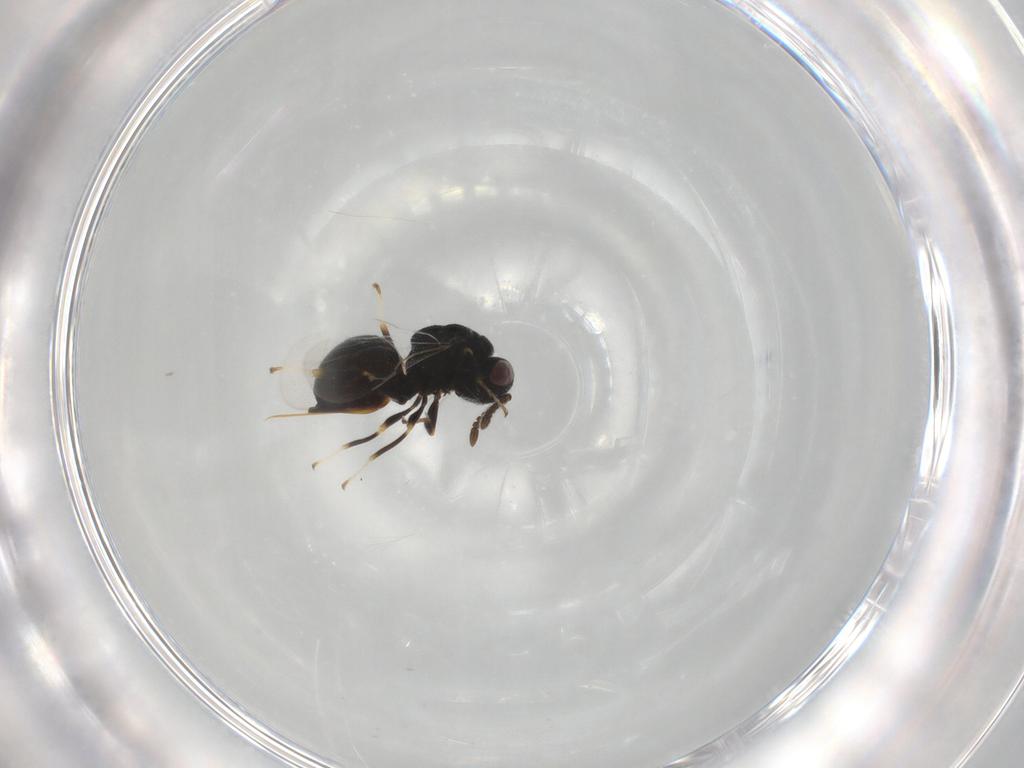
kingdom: Animalia
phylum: Arthropoda
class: Insecta
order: Hymenoptera
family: Eurytomidae
